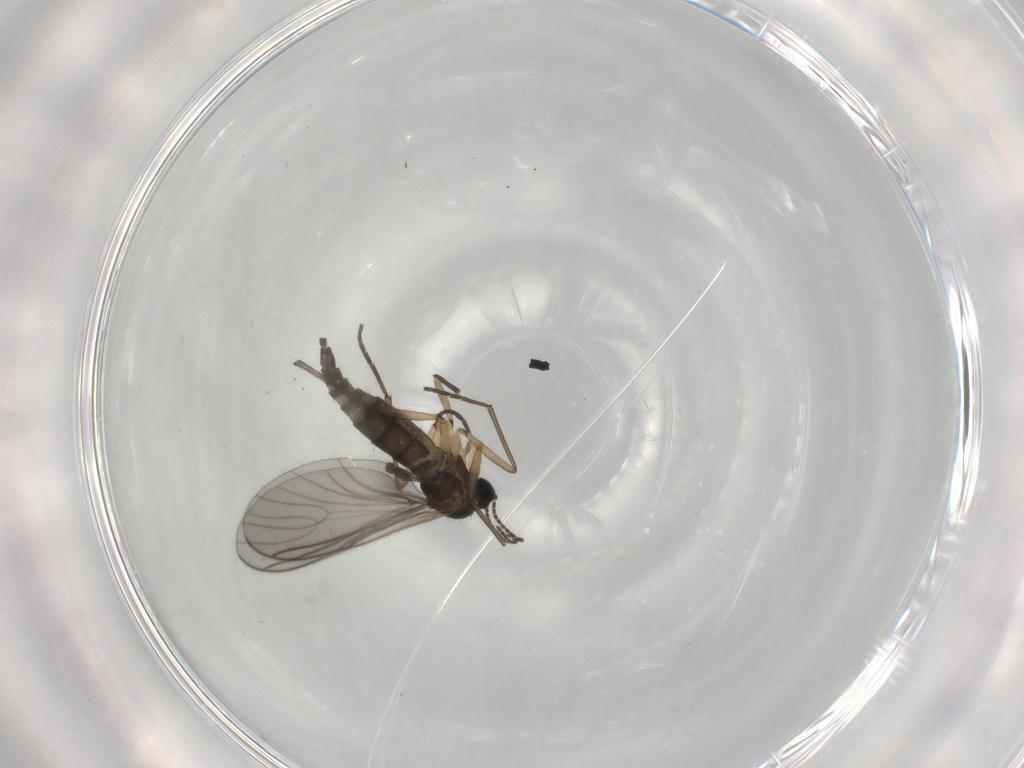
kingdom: Animalia
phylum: Arthropoda
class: Insecta
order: Diptera
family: Sciaridae
